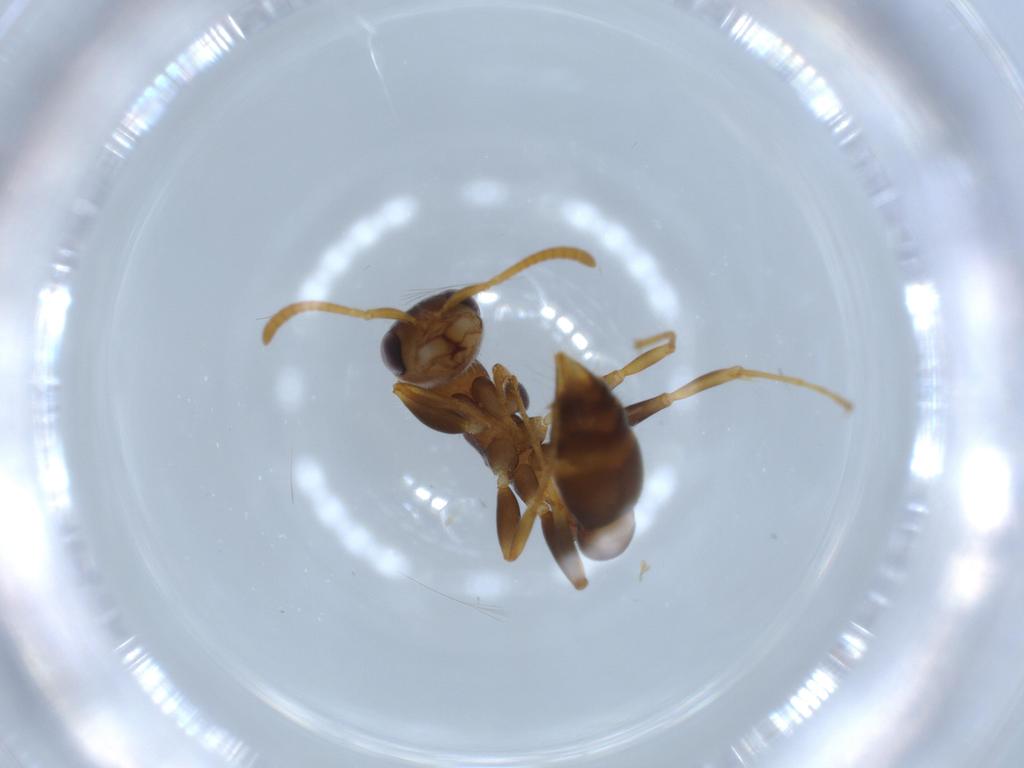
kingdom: Animalia
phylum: Arthropoda
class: Insecta
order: Hymenoptera
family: Formicidae
